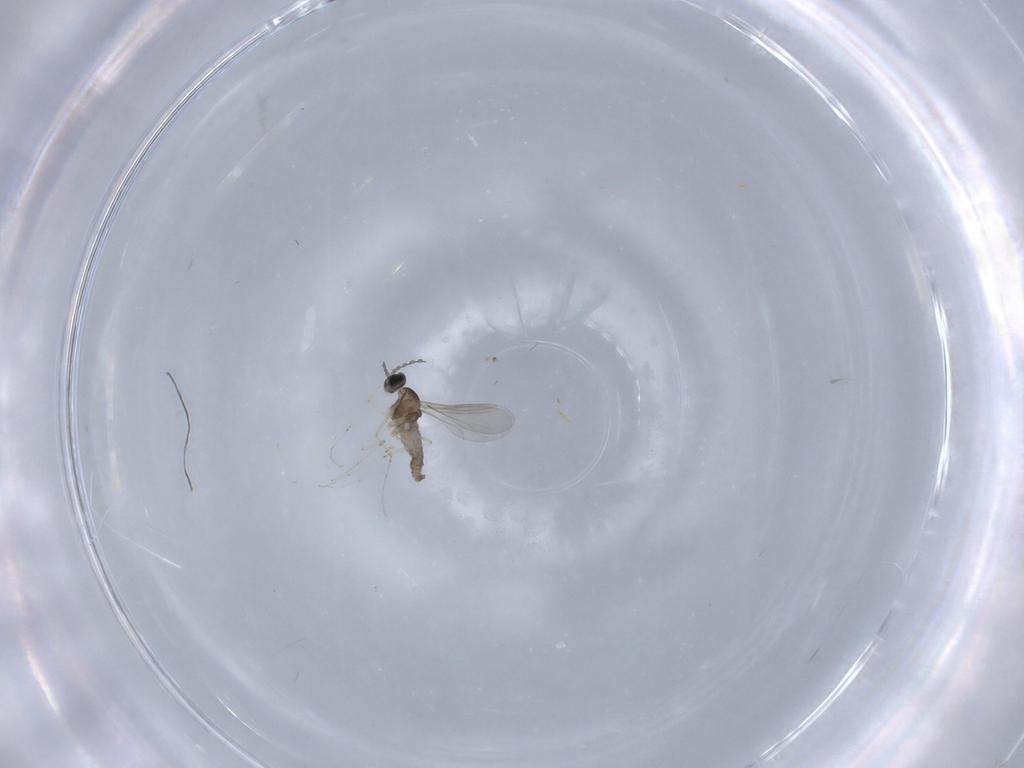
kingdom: Animalia
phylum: Arthropoda
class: Insecta
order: Diptera
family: Cecidomyiidae
